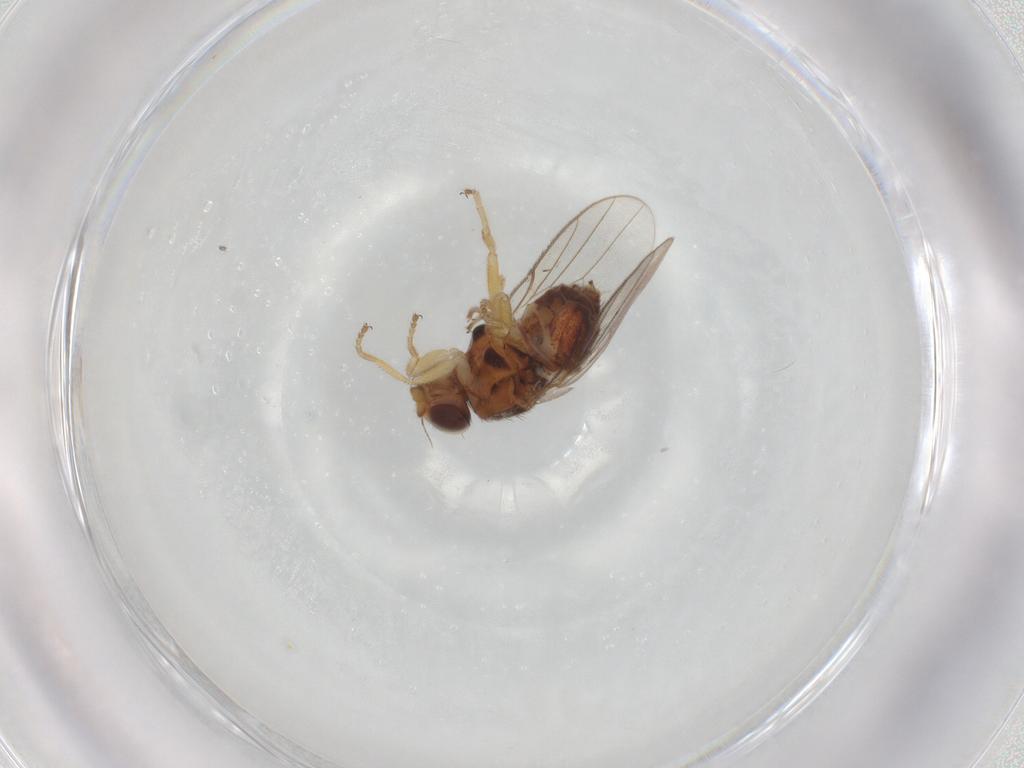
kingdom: Animalia
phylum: Arthropoda
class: Insecta
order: Diptera
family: Chloropidae
